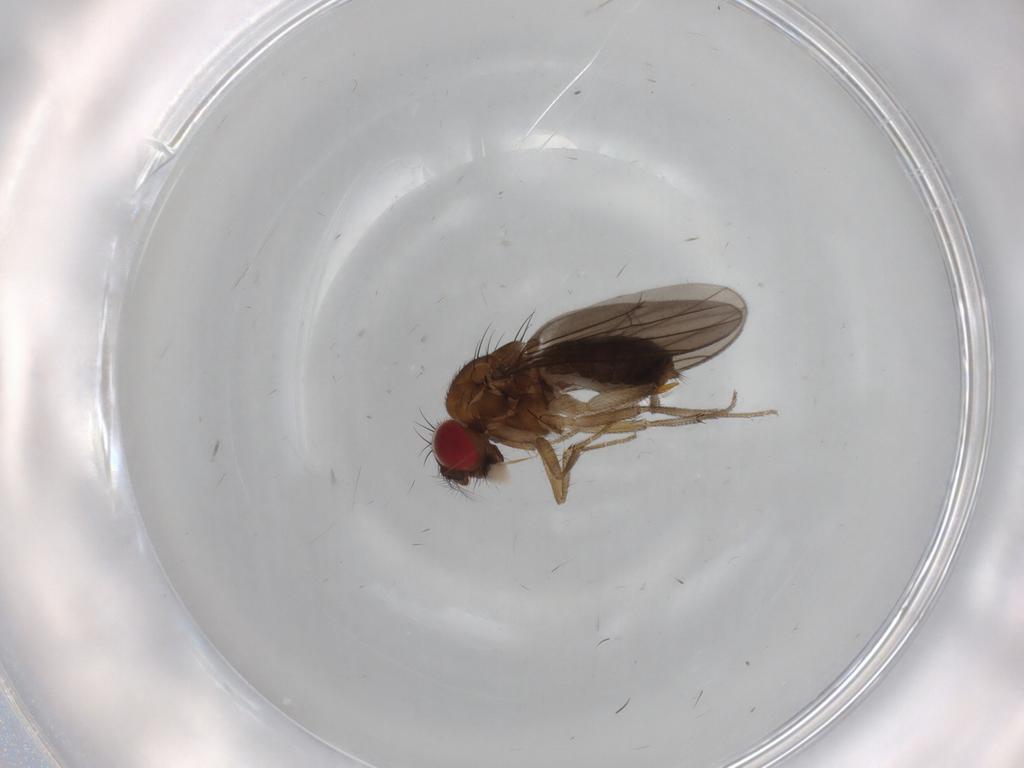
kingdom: Animalia
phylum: Arthropoda
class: Insecta
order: Diptera
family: Drosophilidae
